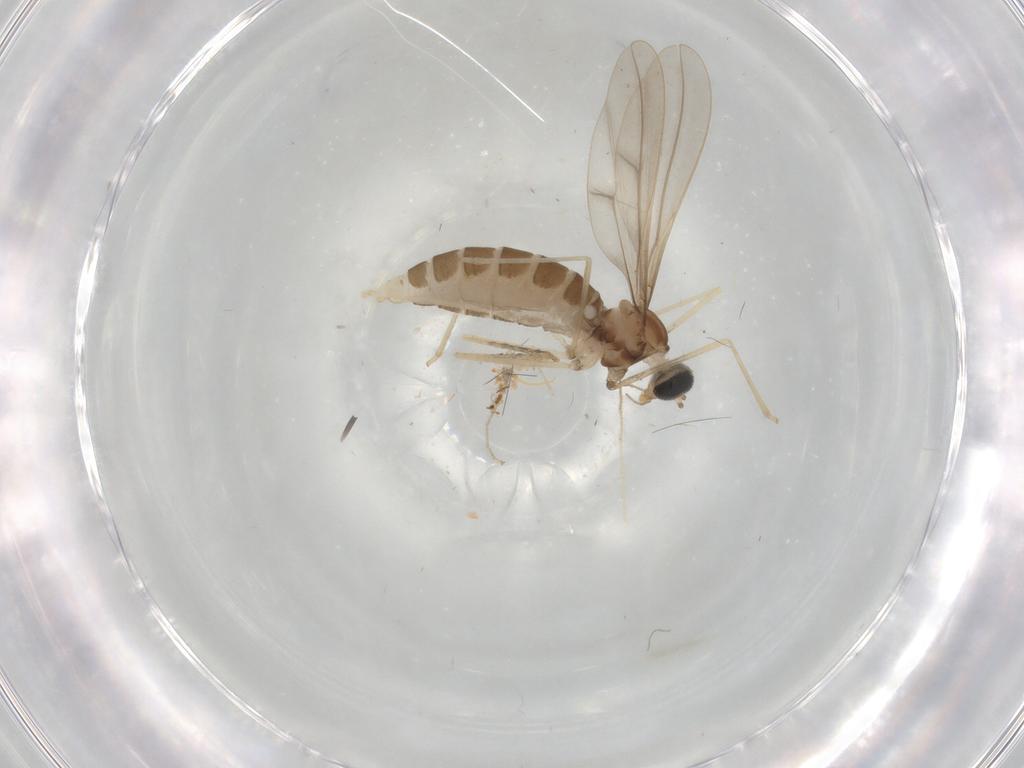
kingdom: Animalia
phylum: Arthropoda
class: Insecta
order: Diptera
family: Cecidomyiidae
